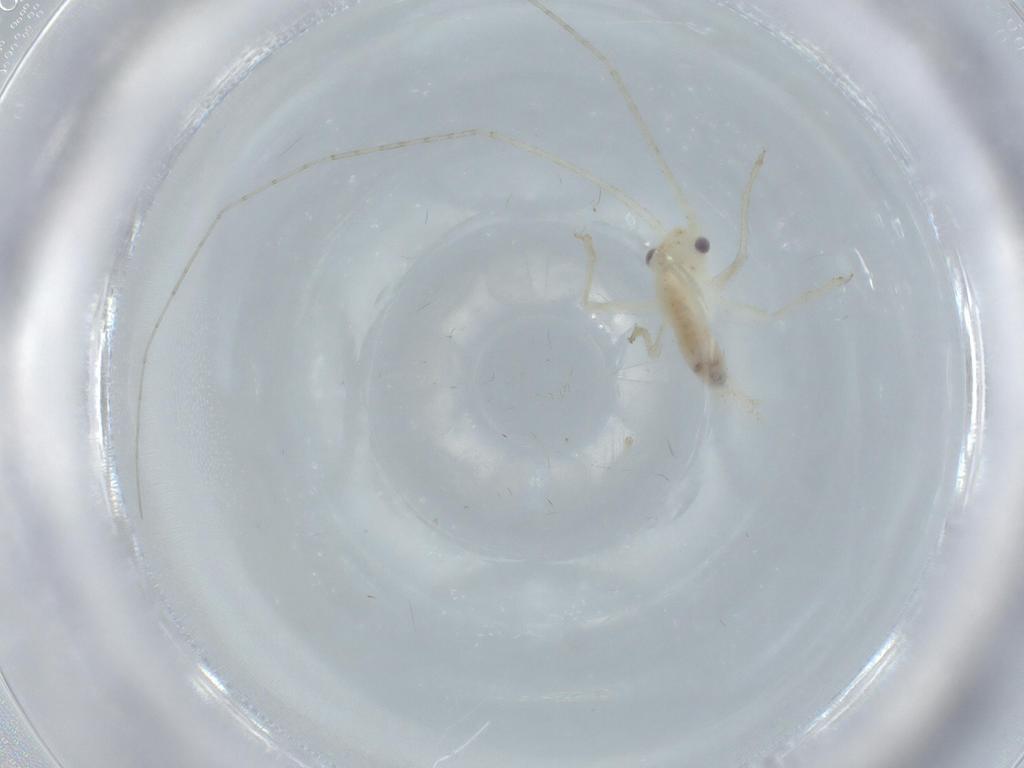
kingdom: Animalia
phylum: Arthropoda
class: Insecta
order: Orthoptera
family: Trigonidiidae
